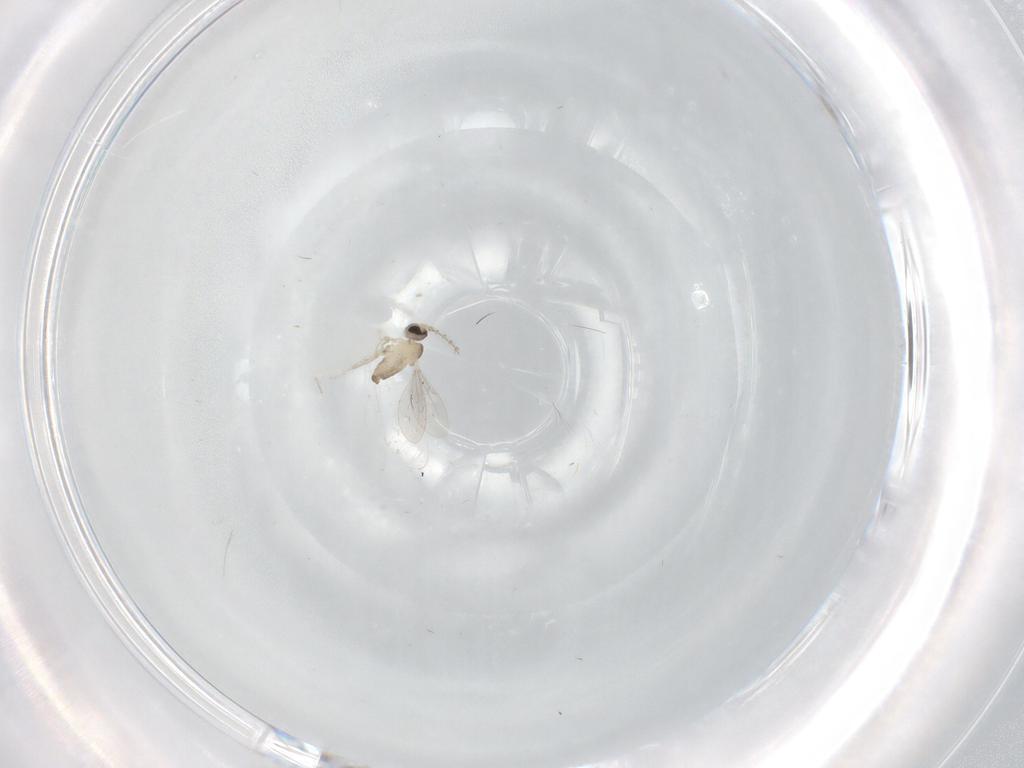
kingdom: Animalia
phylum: Arthropoda
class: Insecta
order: Diptera
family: Cecidomyiidae
